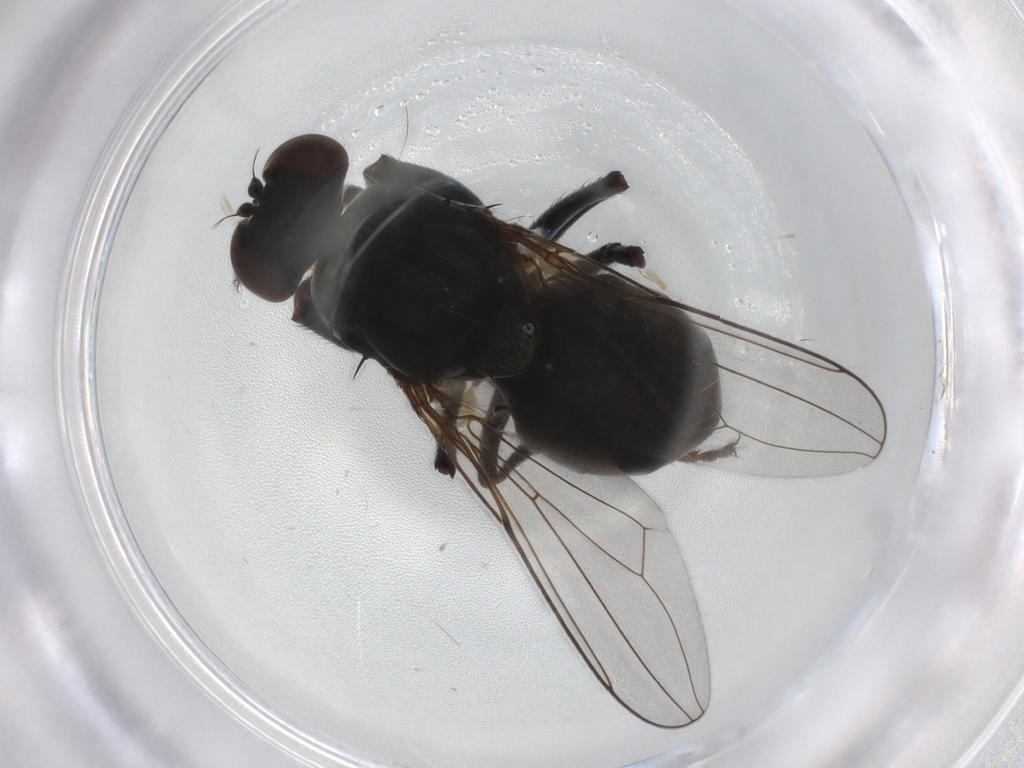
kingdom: Animalia
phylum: Arthropoda
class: Insecta
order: Diptera
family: Ephydridae
